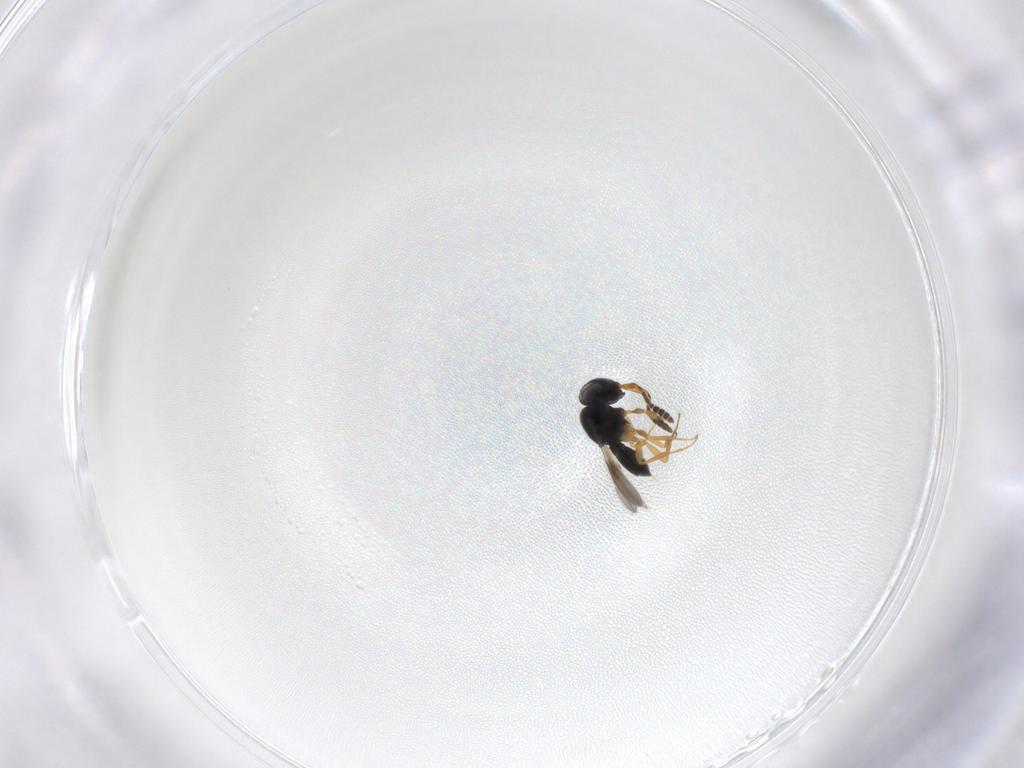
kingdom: Animalia
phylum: Arthropoda
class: Insecta
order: Hymenoptera
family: Scelionidae
